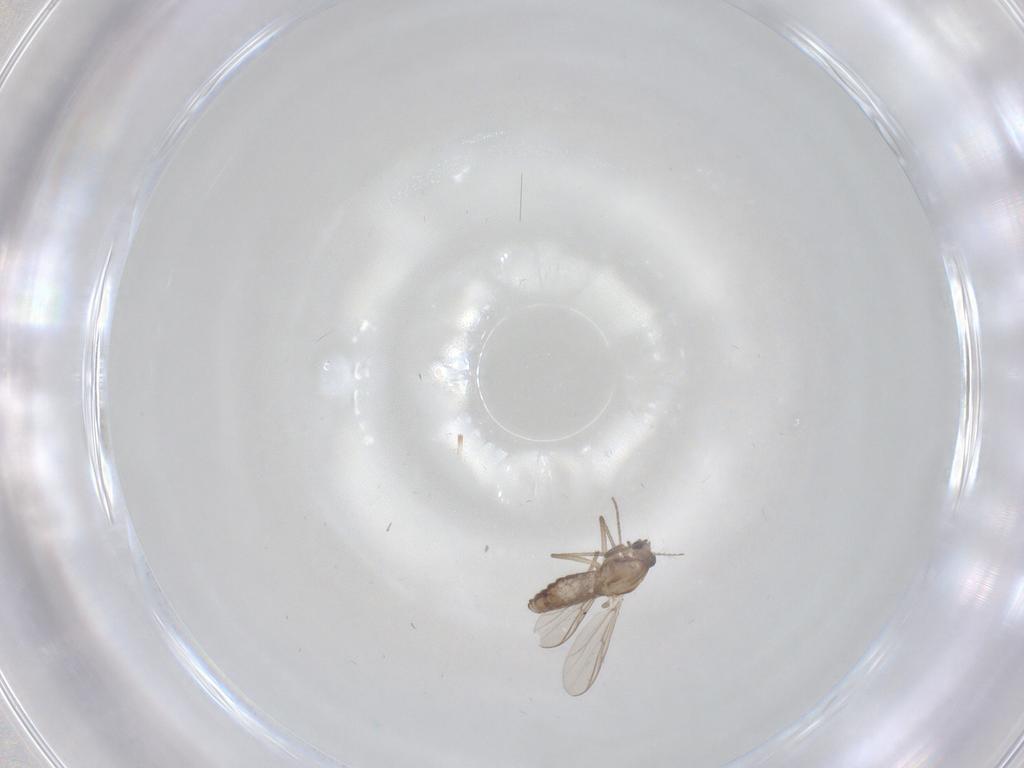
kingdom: Animalia
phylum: Arthropoda
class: Insecta
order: Diptera
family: Chironomidae
